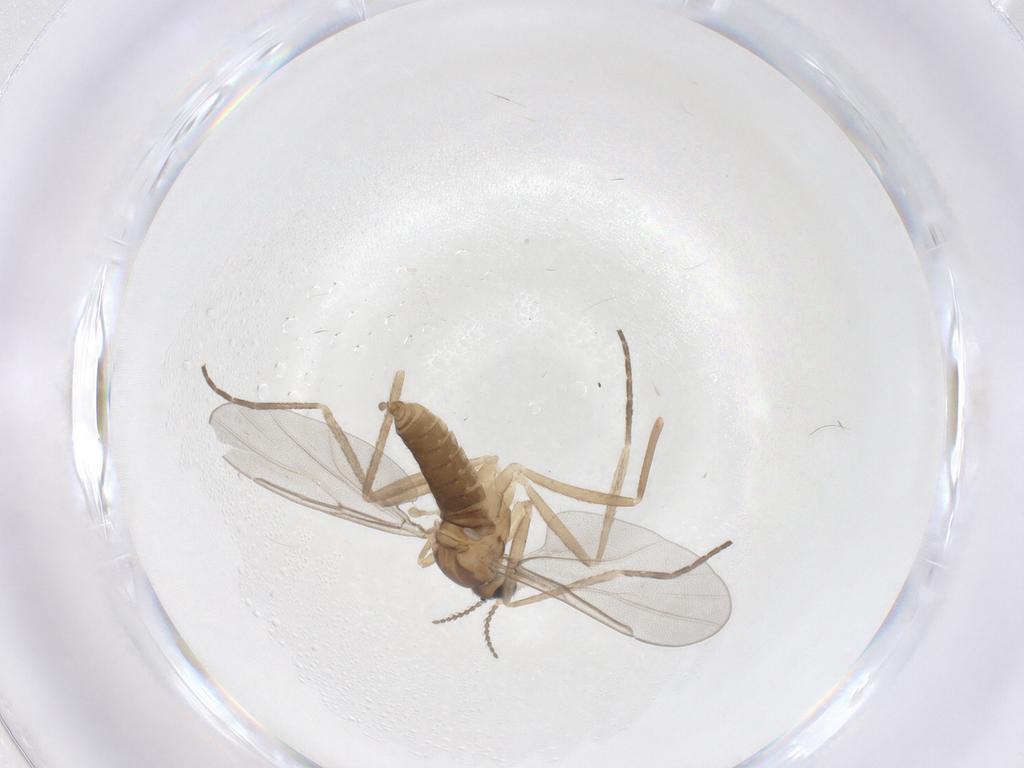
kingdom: Animalia
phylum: Arthropoda
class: Insecta
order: Diptera
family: Cecidomyiidae
